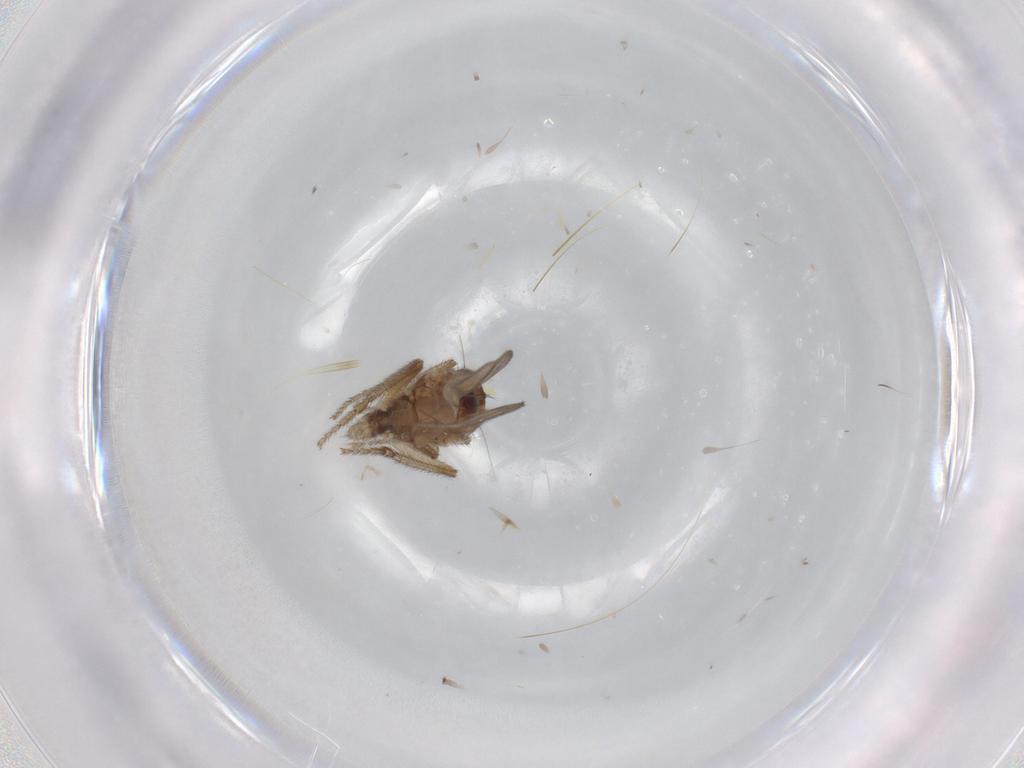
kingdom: Animalia
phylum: Arthropoda
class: Insecta
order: Diptera
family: Sphaeroceridae
